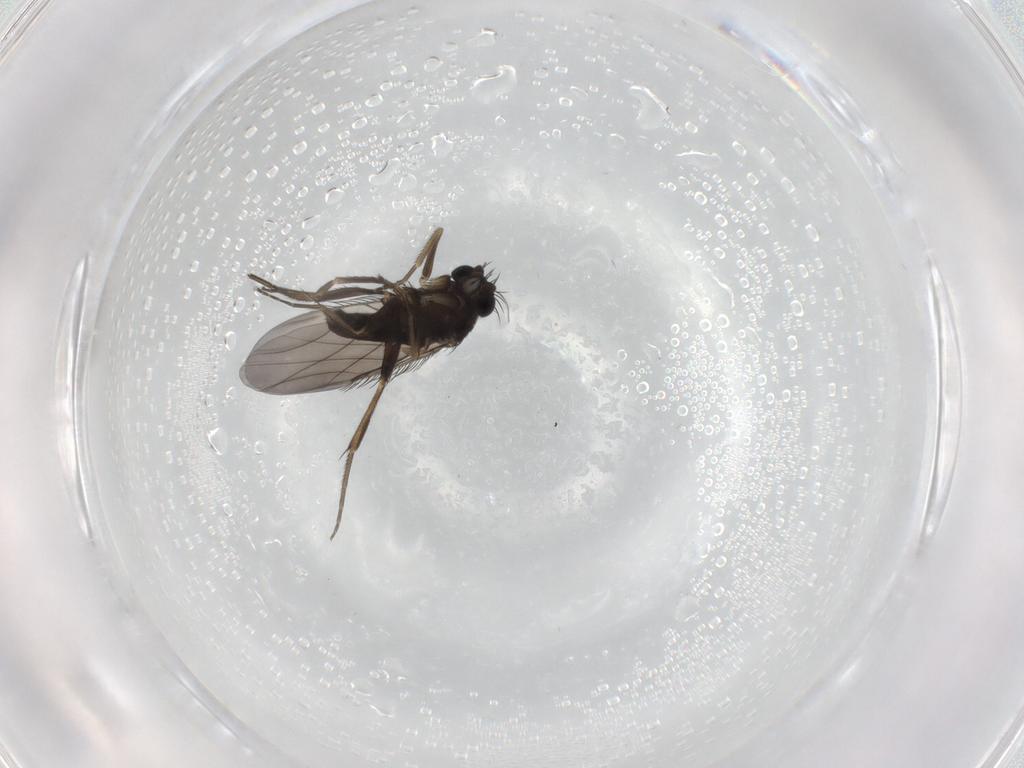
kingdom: Animalia
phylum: Arthropoda
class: Insecta
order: Diptera
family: Phoridae
